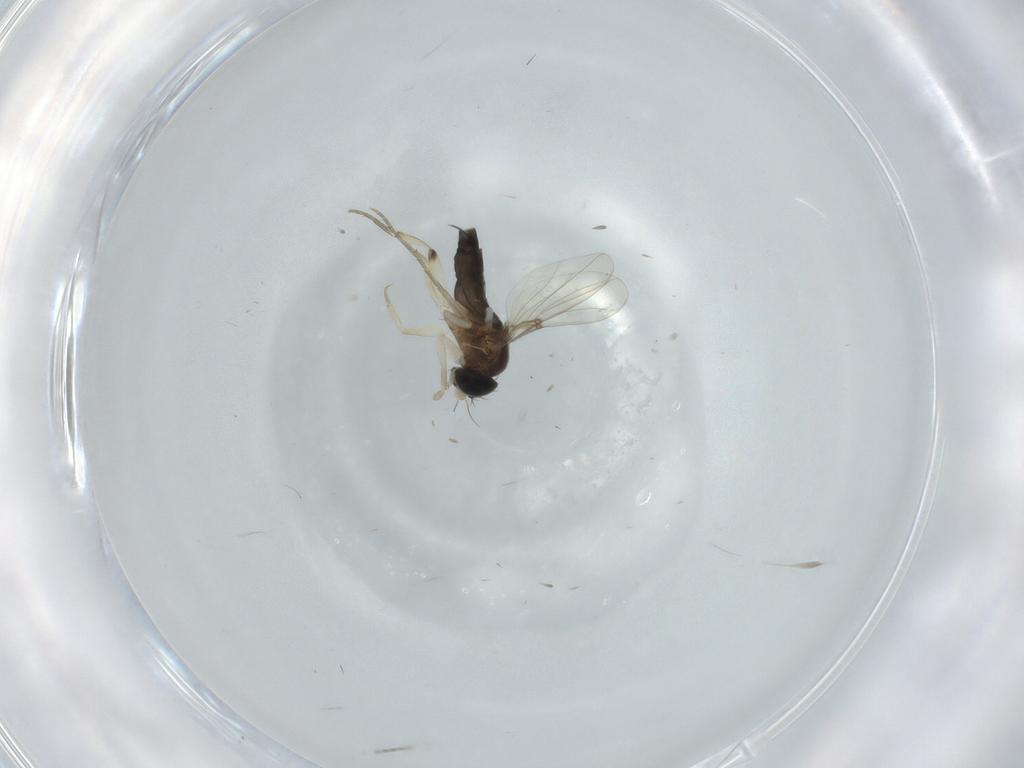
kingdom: Animalia
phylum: Arthropoda
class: Insecta
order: Diptera
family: Phoridae
